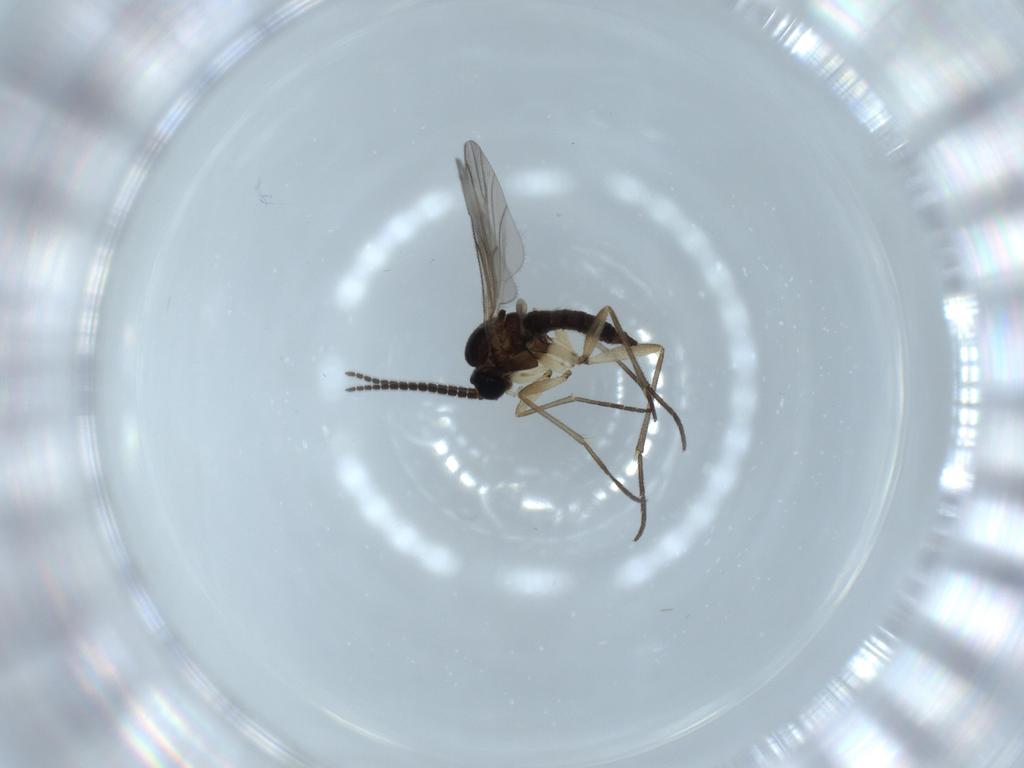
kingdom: Animalia
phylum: Arthropoda
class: Insecta
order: Diptera
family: Sciaridae
